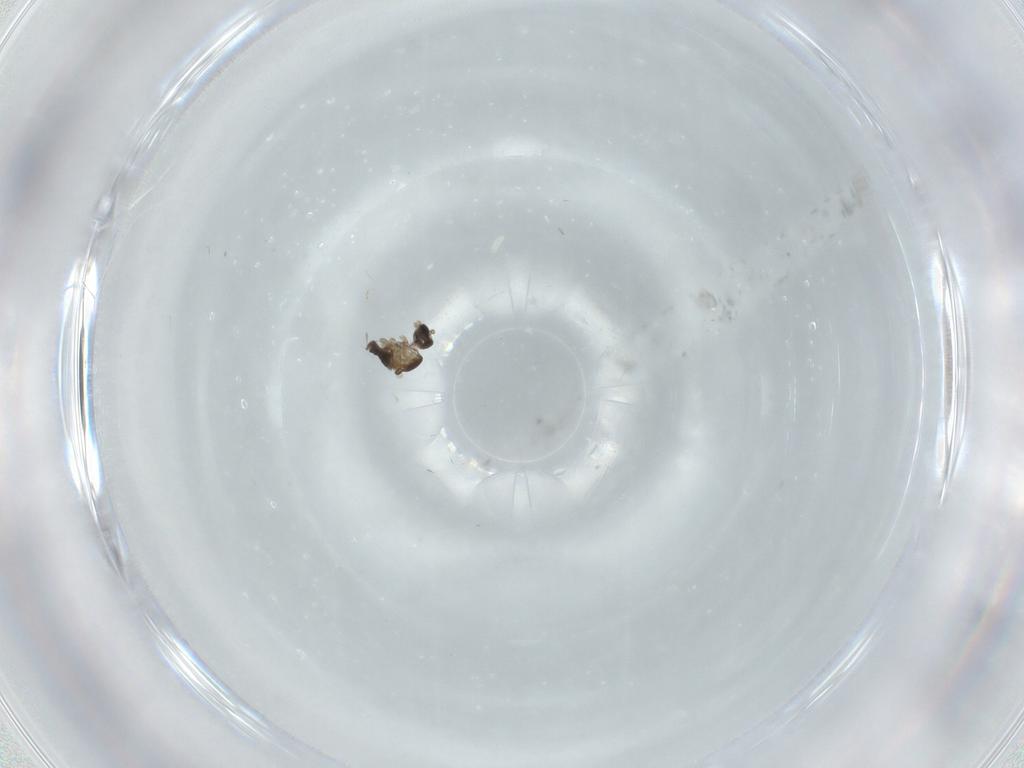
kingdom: Animalia
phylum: Arthropoda
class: Insecta
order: Diptera
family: Cecidomyiidae
